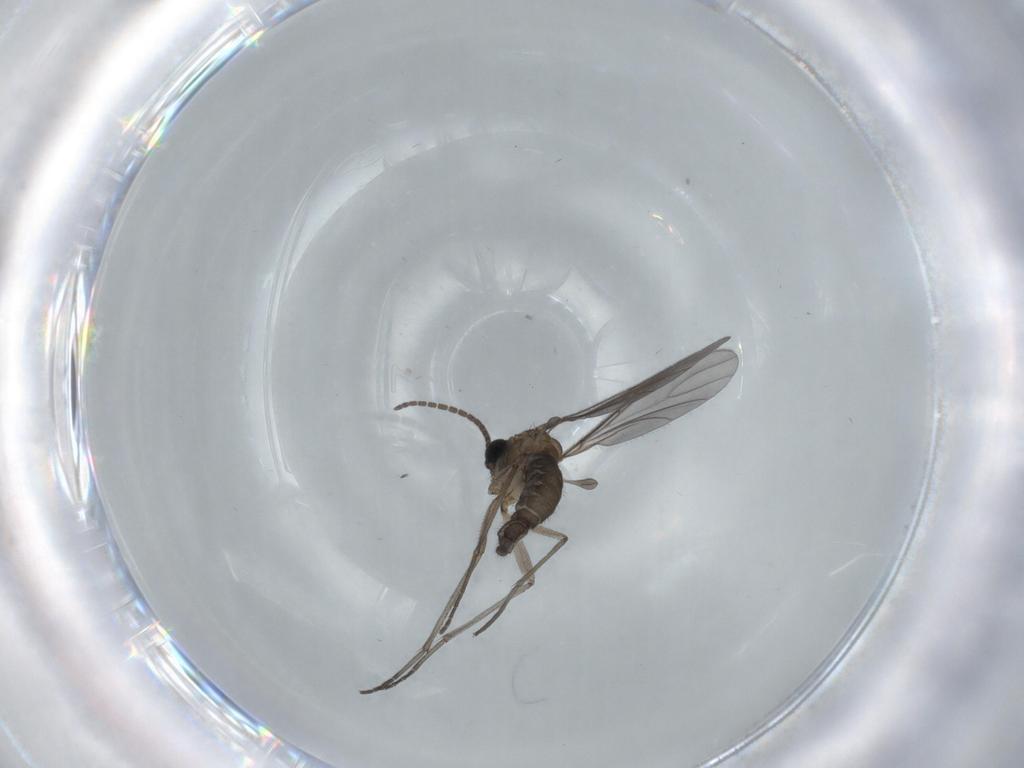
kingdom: Animalia
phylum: Arthropoda
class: Insecta
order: Diptera
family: Sciaridae
